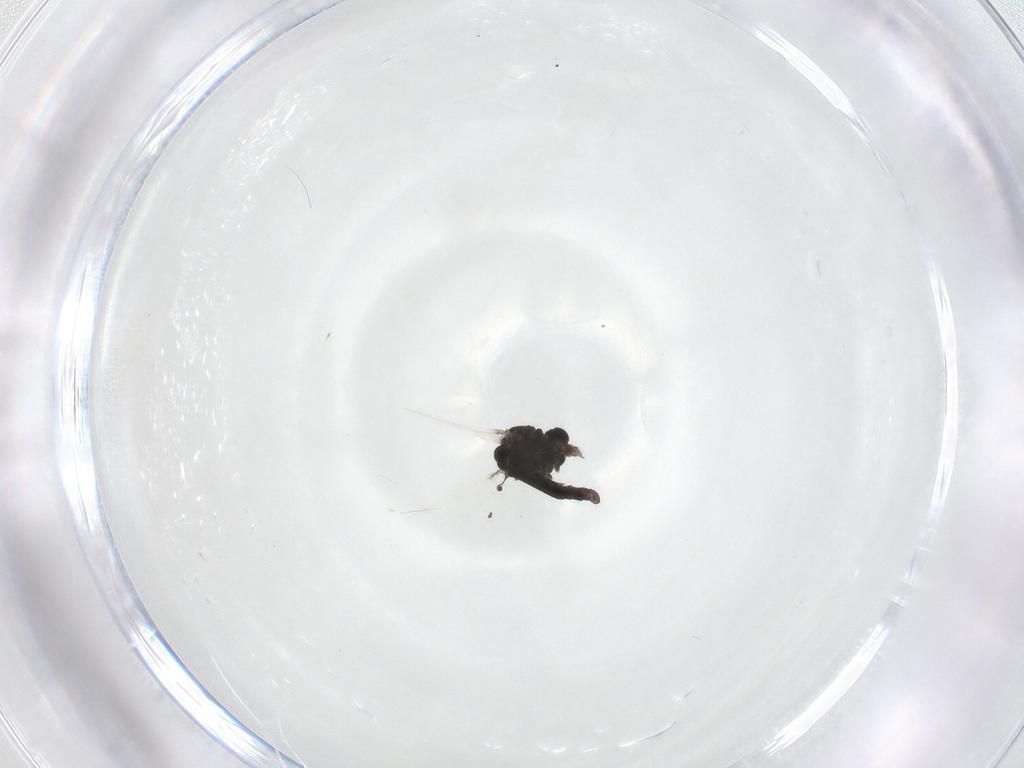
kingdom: Animalia
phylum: Arthropoda
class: Insecta
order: Diptera
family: Chironomidae
